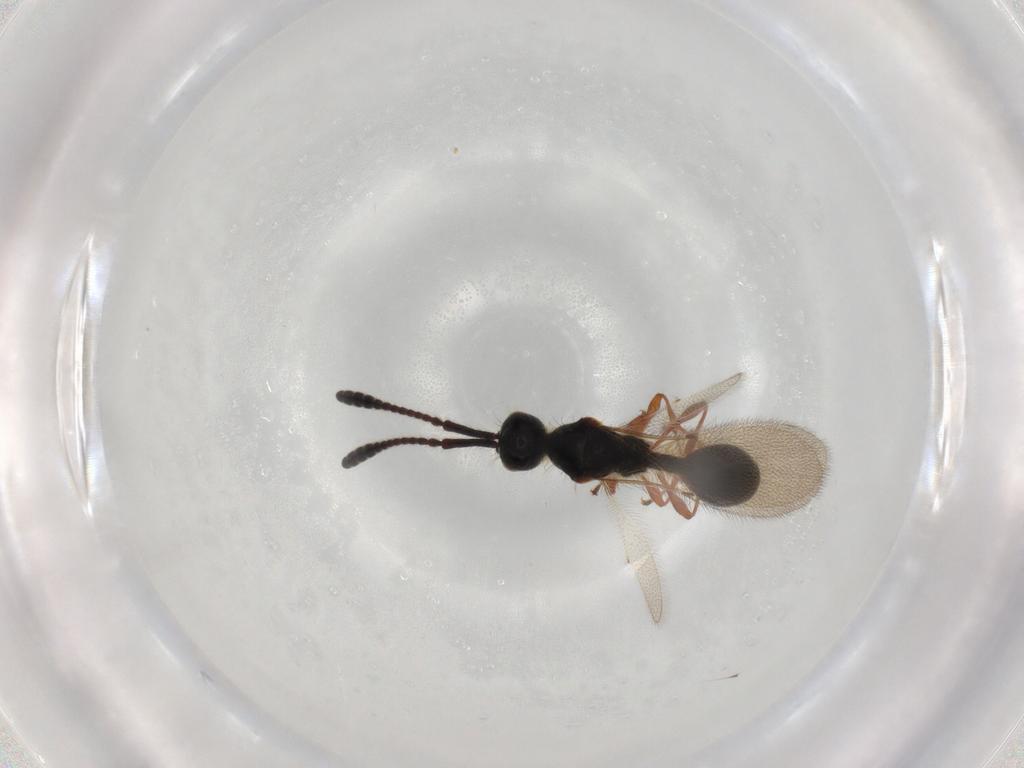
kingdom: Animalia
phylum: Arthropoda
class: Insecta
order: Hymenoptera
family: Diapriidae
